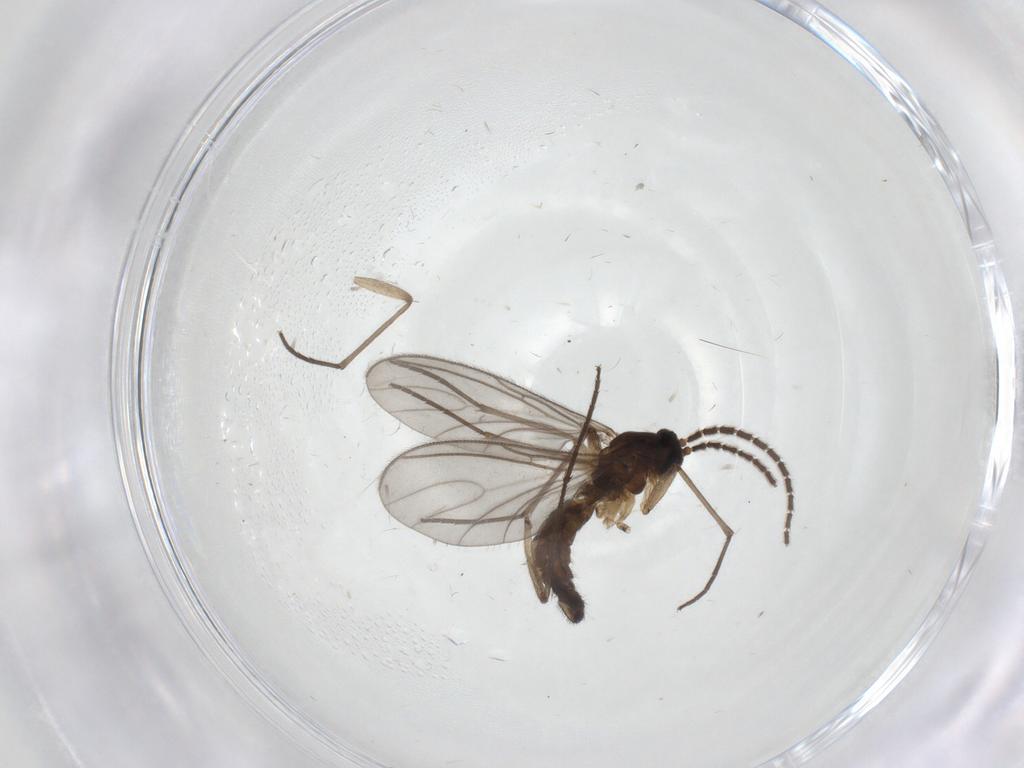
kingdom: Animalia
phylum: Arthropoda
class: Insecta
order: Diptera
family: Sciaridae
